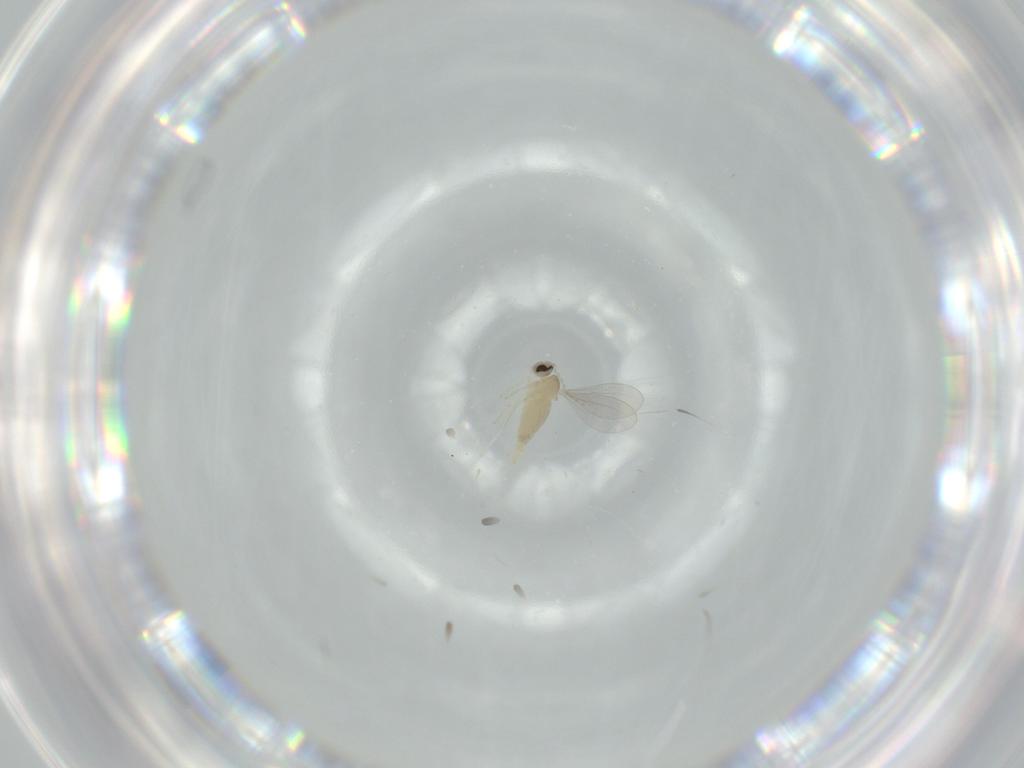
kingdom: Animalia
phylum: Arthropoda
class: Insecta
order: Diptera
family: Cecidomyiidae
